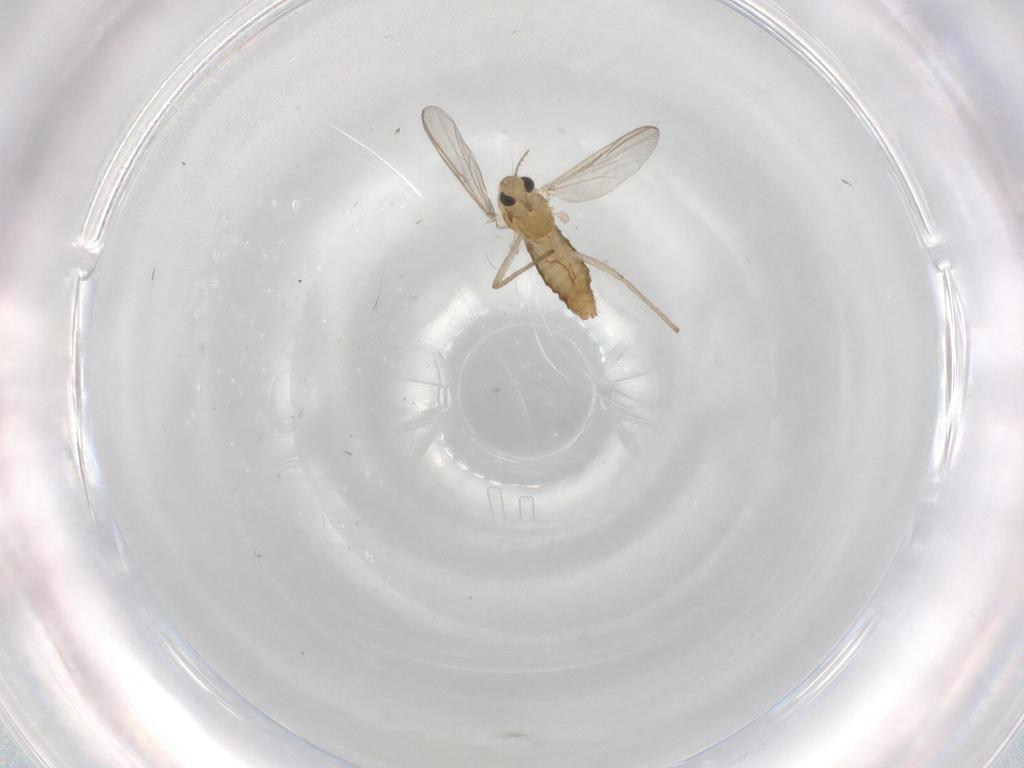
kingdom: Animalia
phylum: Arthropoda
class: Insecta
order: Diptera
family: Chironomidae
